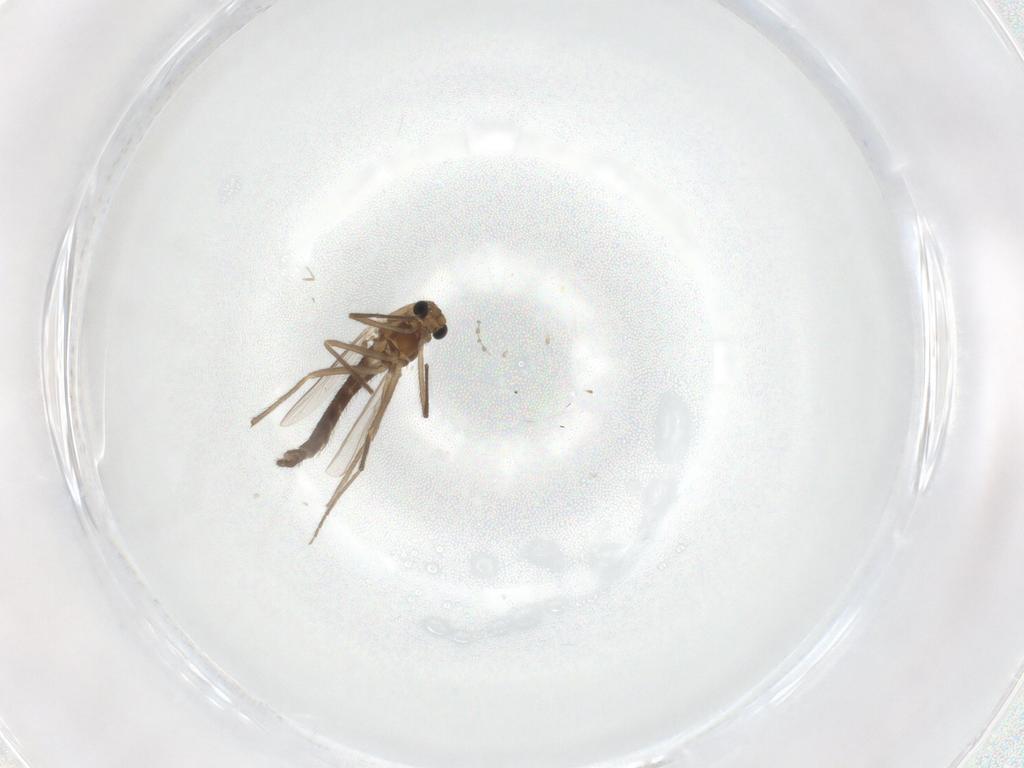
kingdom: Animalia
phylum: Arthropoda
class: Insecta
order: Diptera
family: Chironomidae
